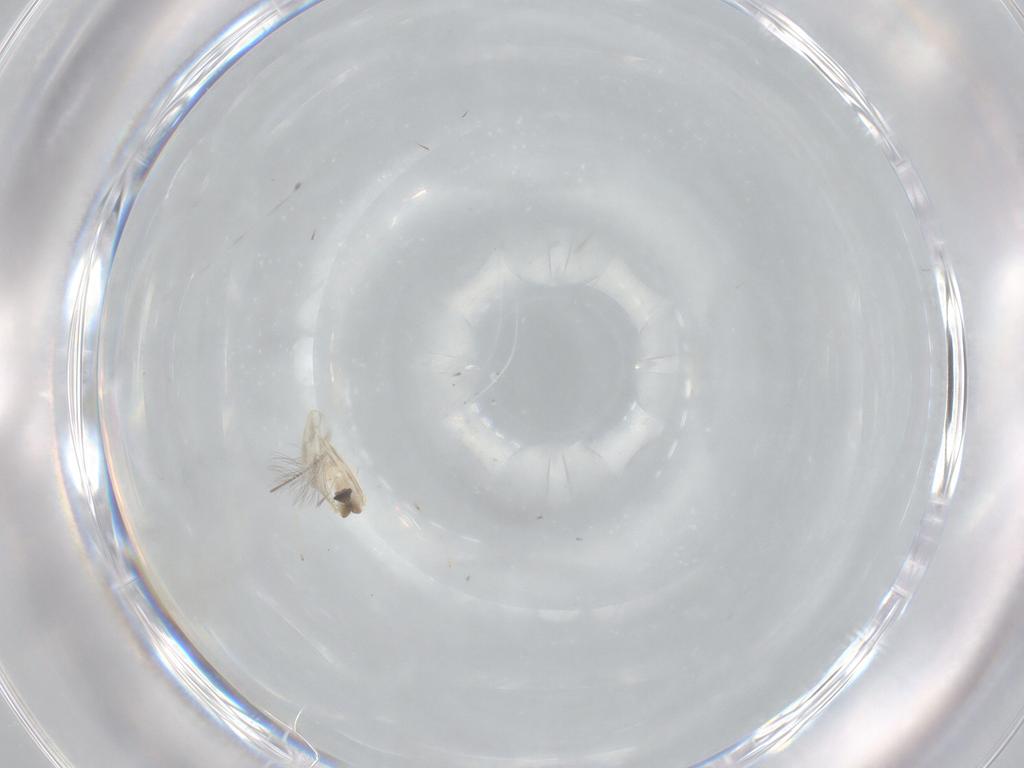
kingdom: Animalia
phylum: Arthropoda
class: Insecta
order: Diptera
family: Cecidomyiidae
